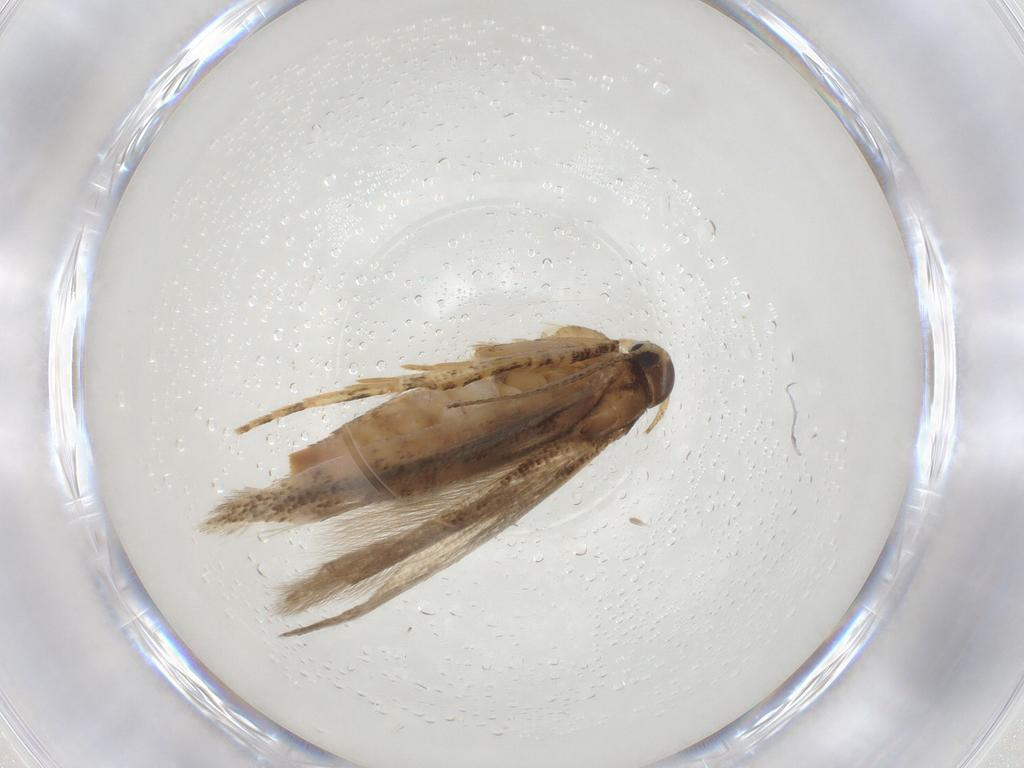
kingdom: Animalia
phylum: Arthropoda
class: Insecta
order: Lepidoptera
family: Gelechiidae
